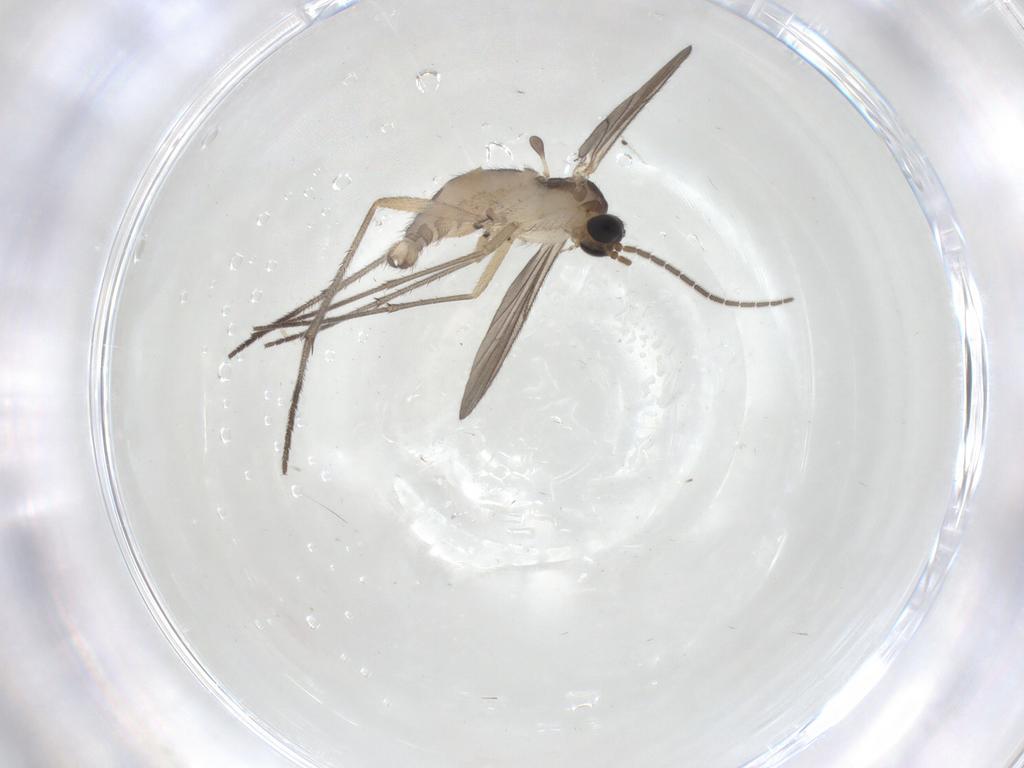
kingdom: Animalia
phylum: Arthropoda
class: Insecta
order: Diptera
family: Sciaridae
